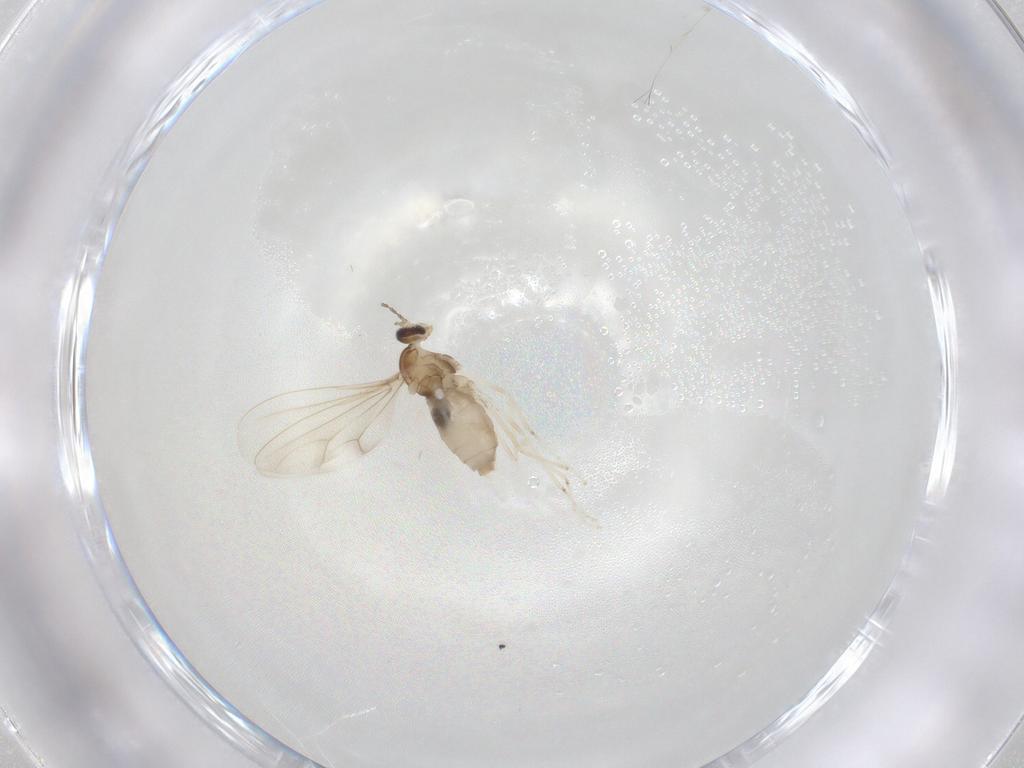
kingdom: Animalia
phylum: Arthropoda
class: Insecta
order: Diptera
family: Cecidomyiidae
